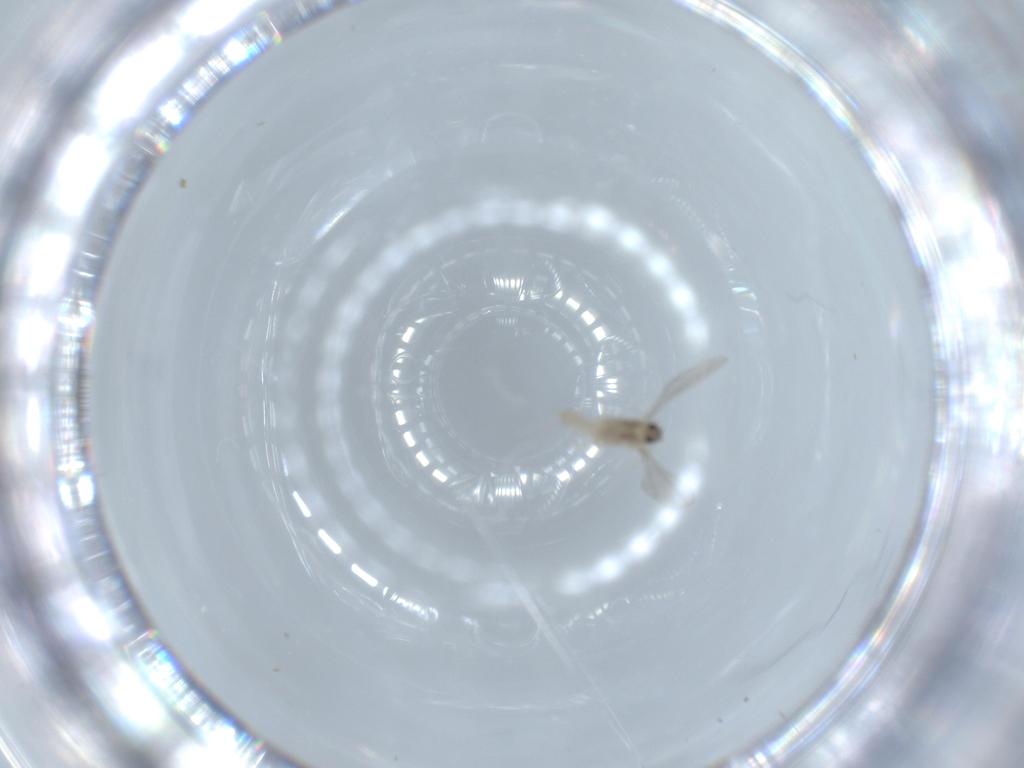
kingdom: Animalia
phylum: Arthropoda
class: Insecta
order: Diptera
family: Cecidomyiidae
